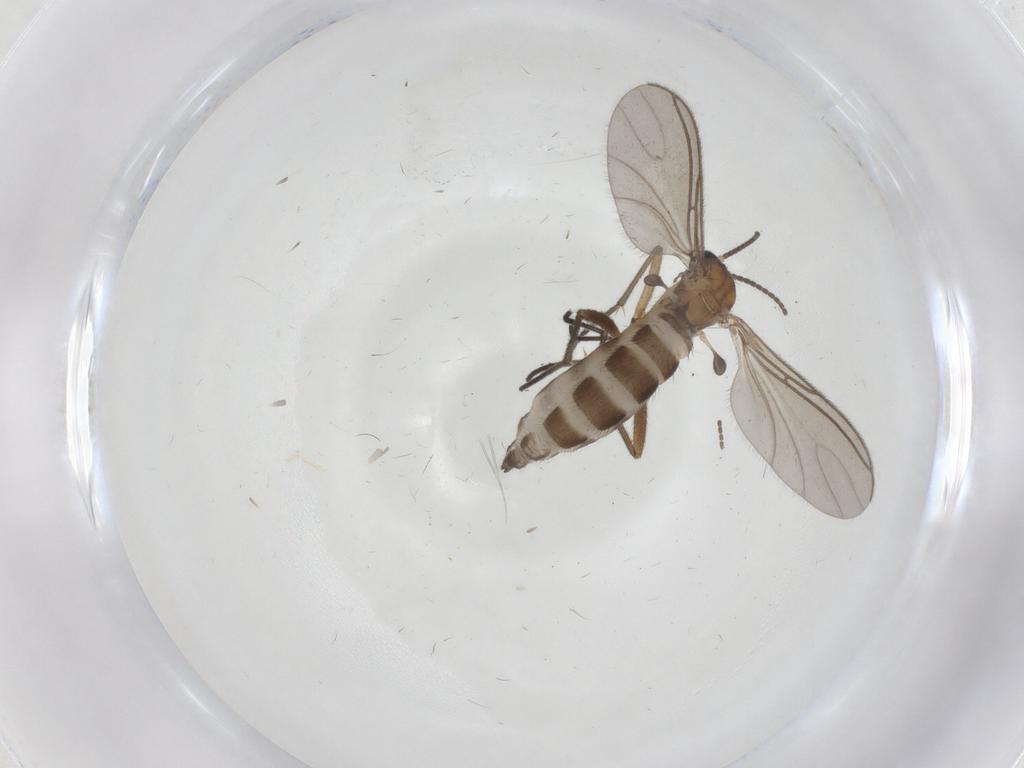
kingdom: Animalia
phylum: Arthropoda
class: Insecta
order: Diptera
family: Sciaridae
